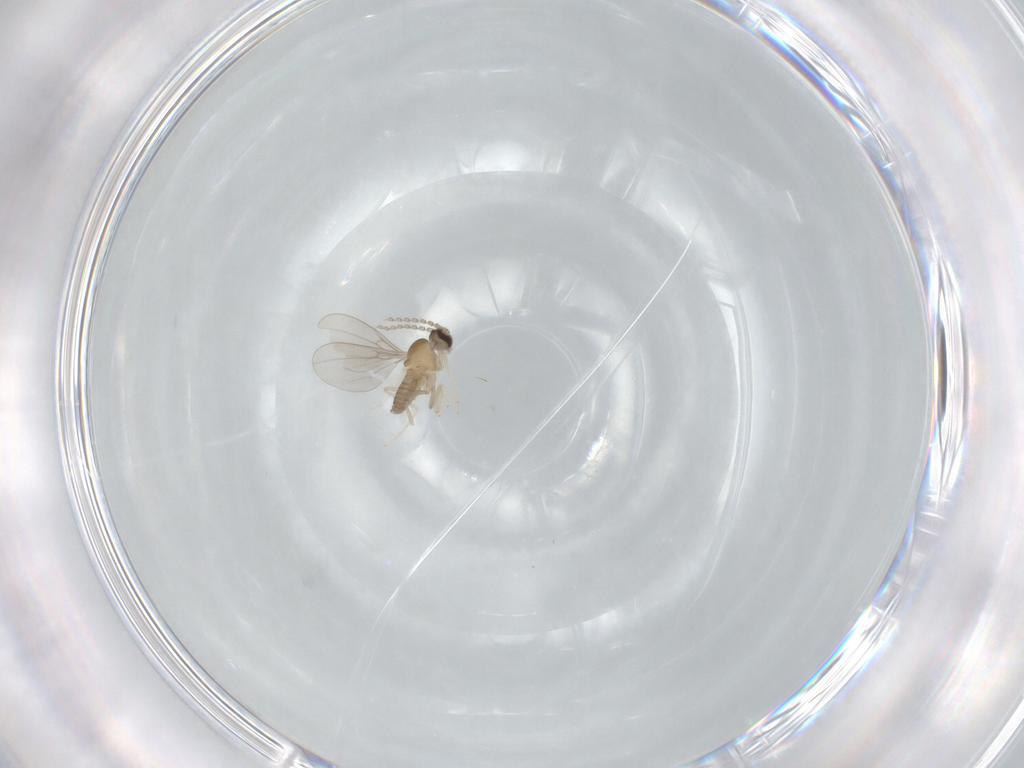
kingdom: Animalia
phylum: Arthropoda
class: Insecta
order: Diptera
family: Cecidomyiidae
